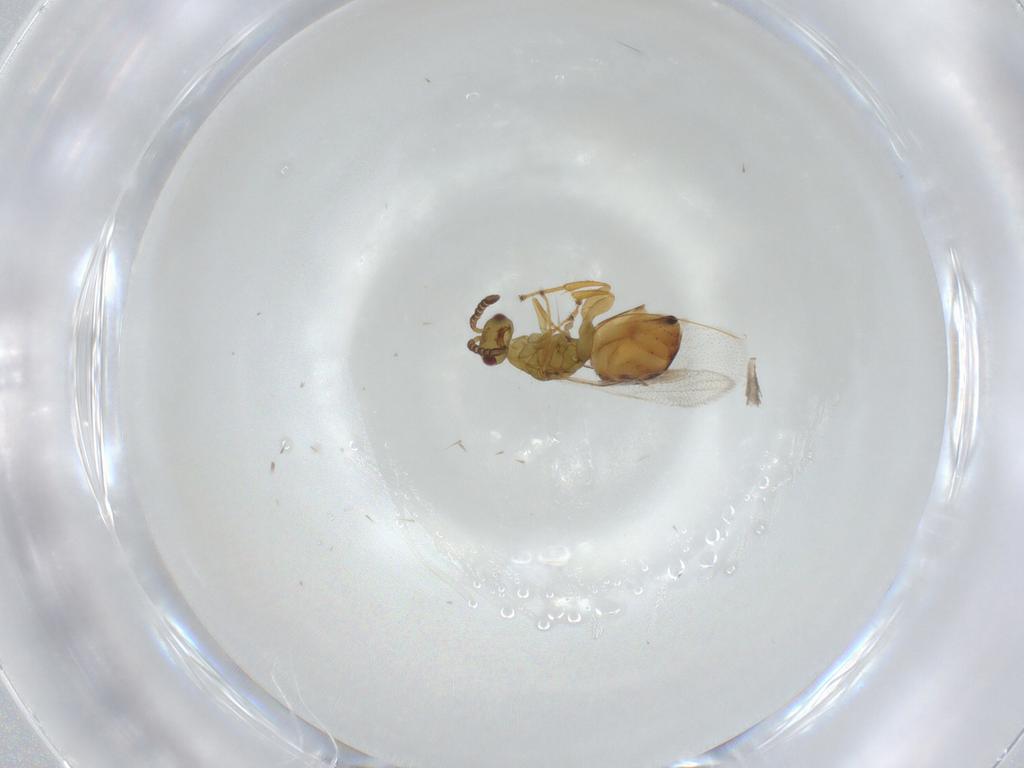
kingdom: Animalia
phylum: Arthropoda
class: Insecta
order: Hymenoptera
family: Epichrysomallidae
